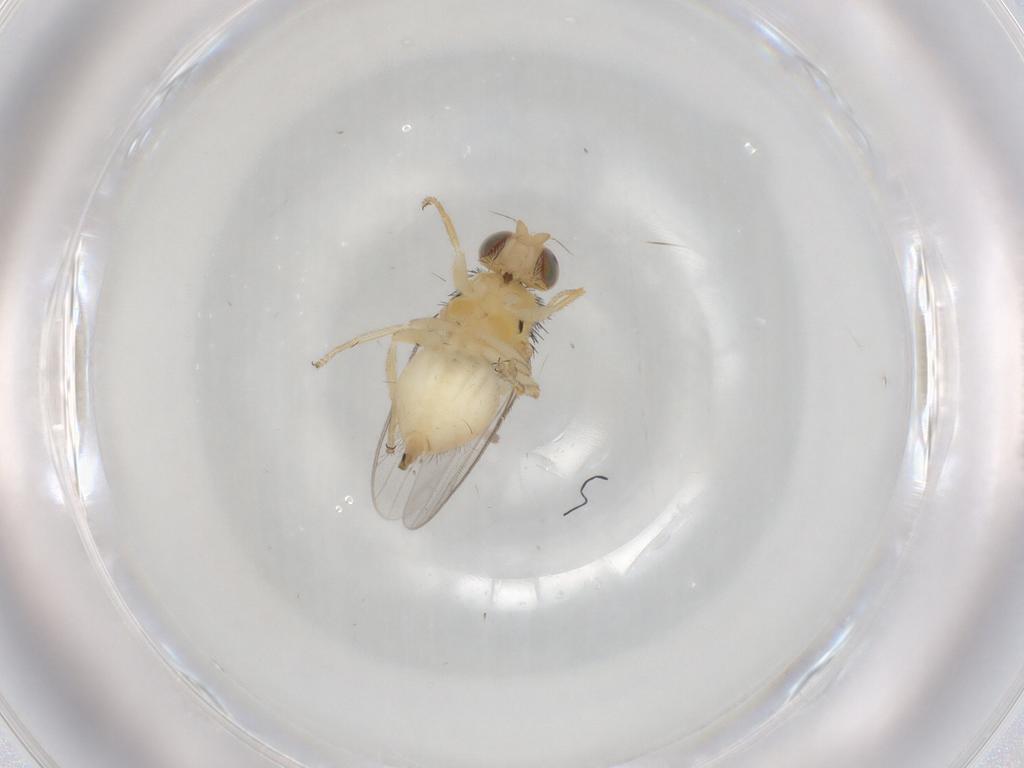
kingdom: Animalia
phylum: Arthropoda
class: Insecta
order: Diptera
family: Chloropidae
